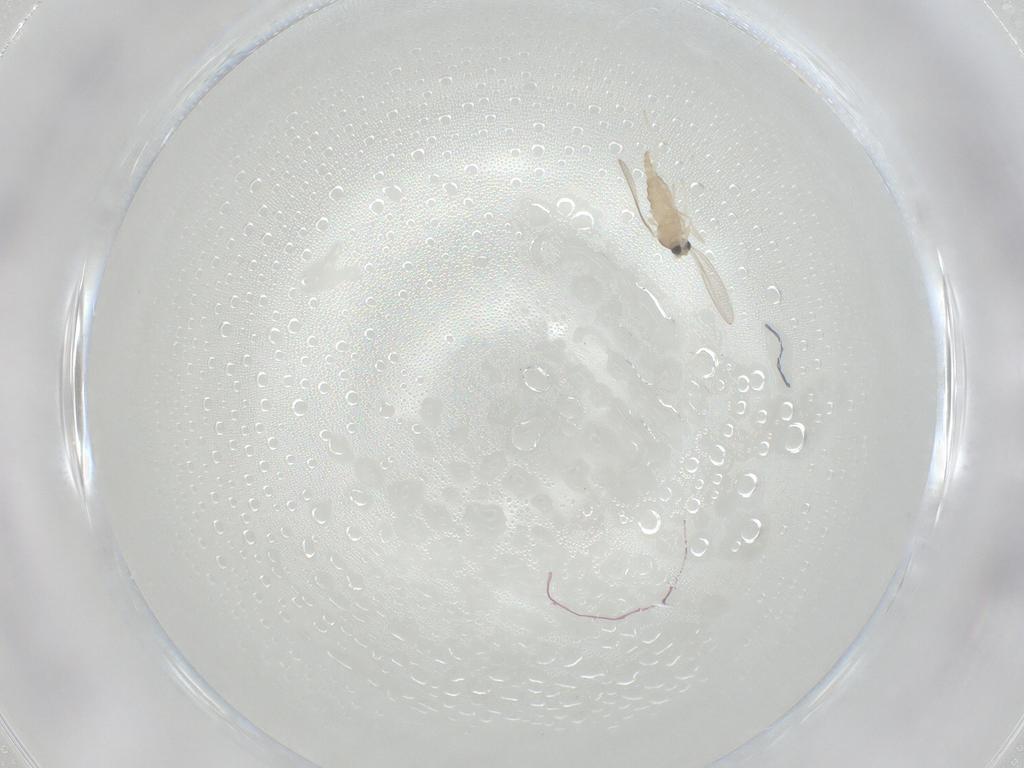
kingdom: Animalia
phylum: Arthropoda
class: Insecta
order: Diptera
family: Cecidomyiidae
